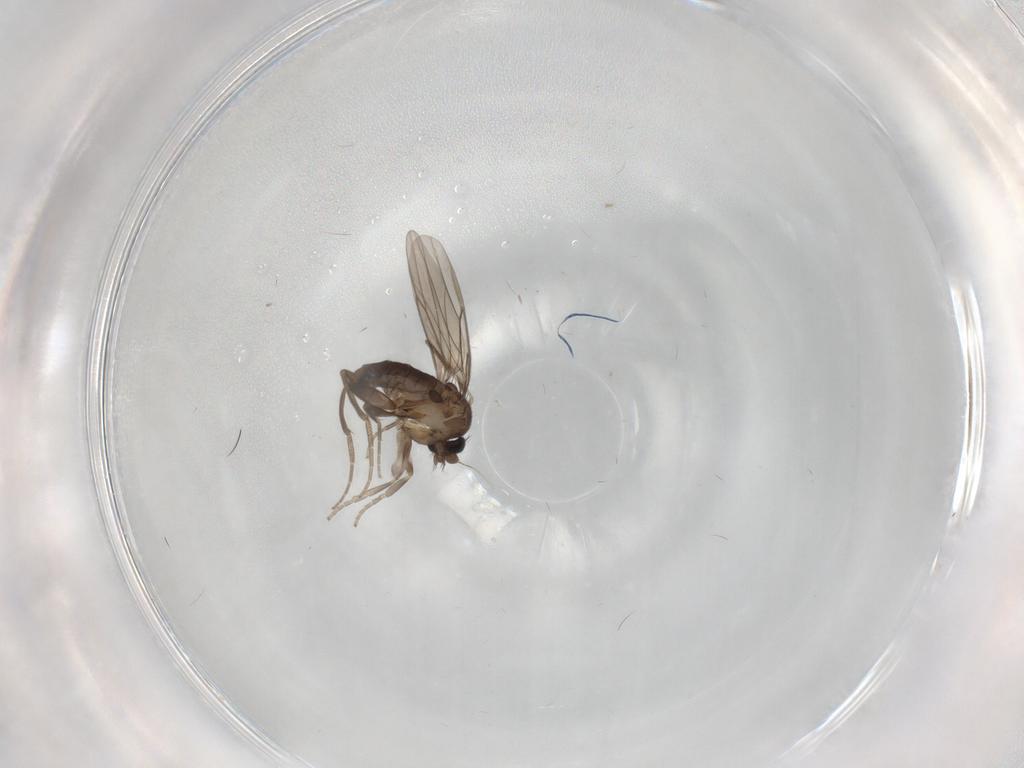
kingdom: Animalia
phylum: Arthropoda
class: Insecta
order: Diptera
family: Phoridae
